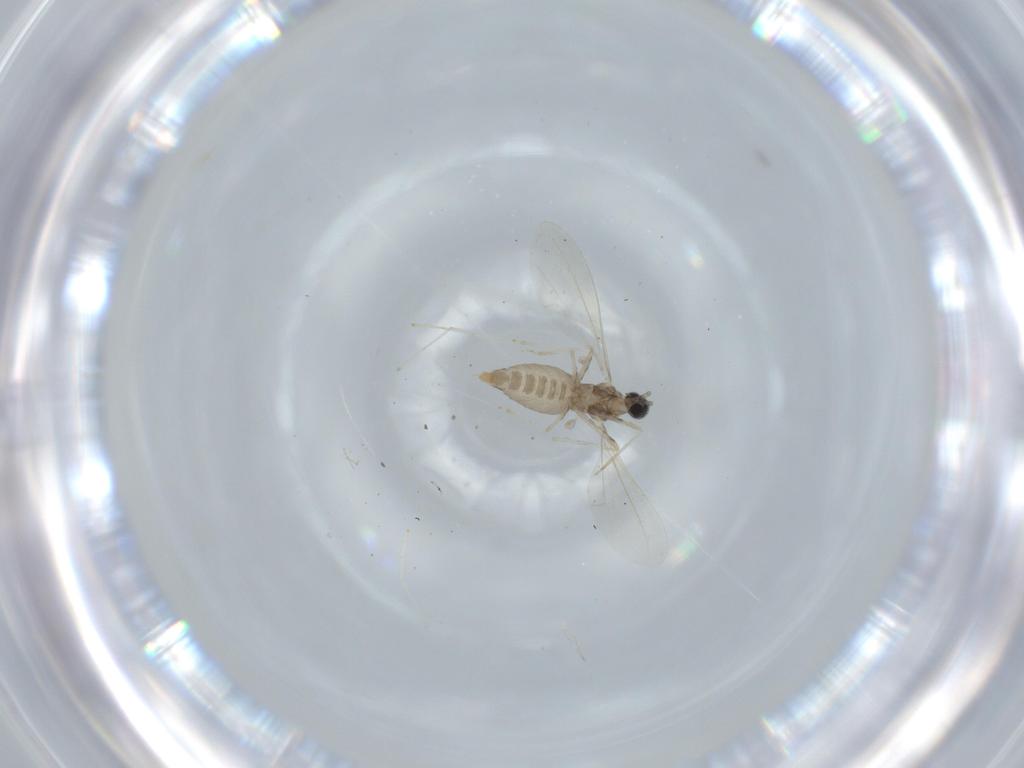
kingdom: Animalia
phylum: Arthropoda
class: Insecta
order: Diptera
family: Cecidomyiidae
